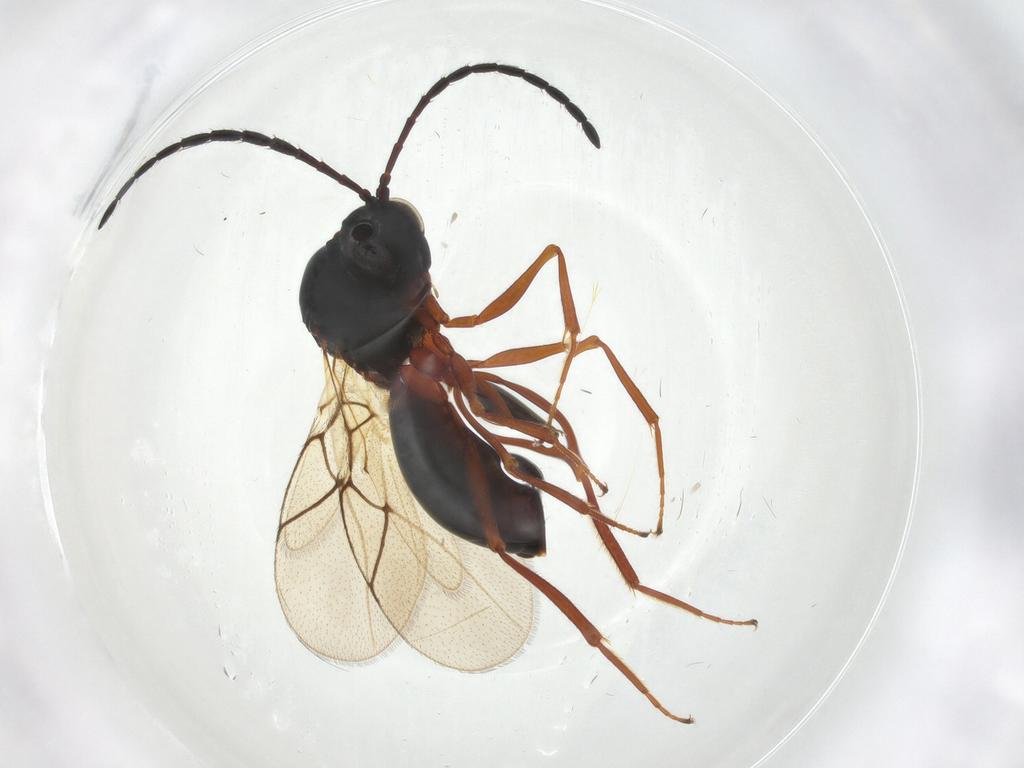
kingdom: Animalia
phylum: Arthropoda
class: Insecta
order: Hymenoptera
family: Figitidae
